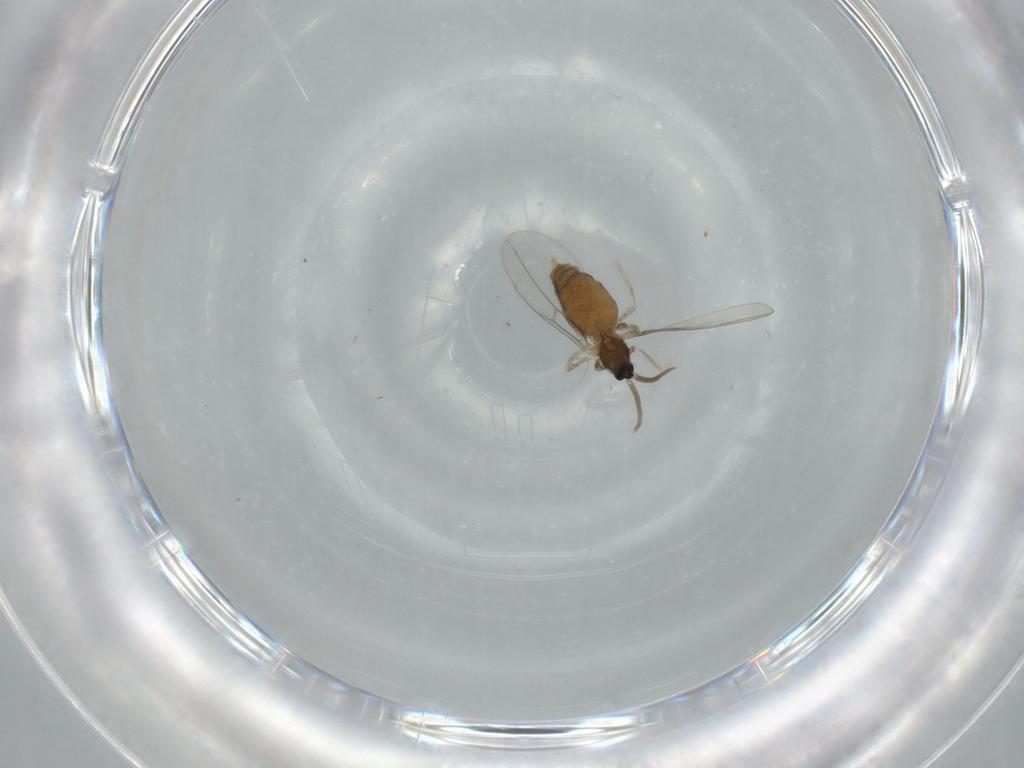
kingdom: Animalia
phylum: Arthropoda
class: Insecta
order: Diptera
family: Cecidomyiidae
